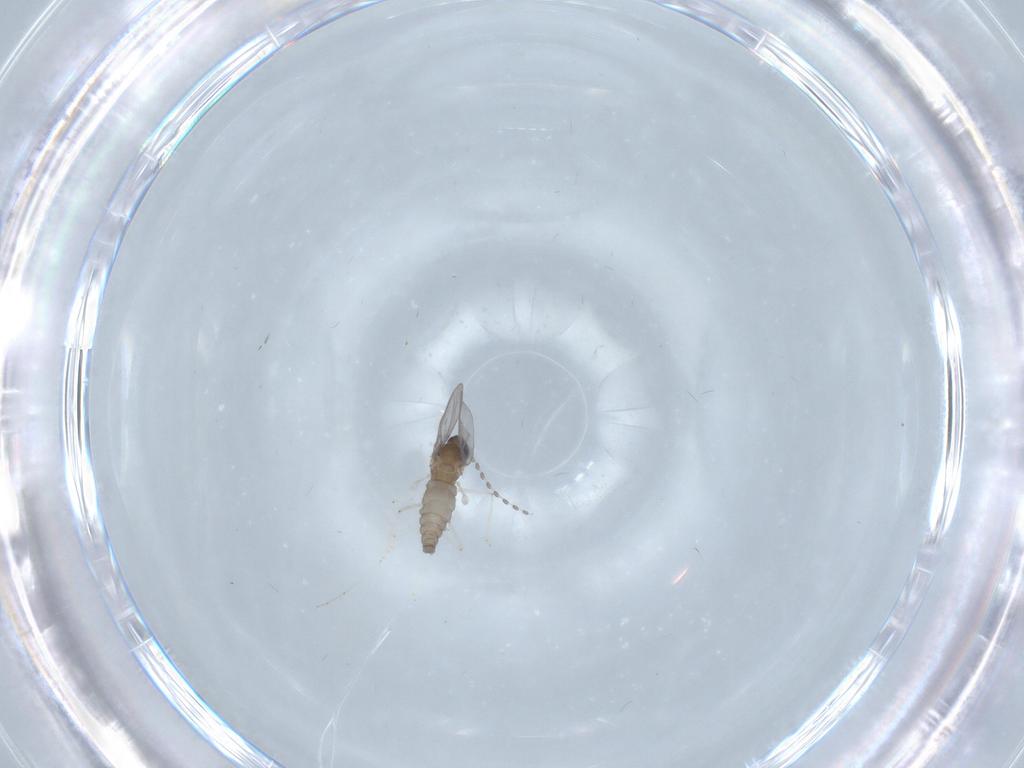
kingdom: Animalia
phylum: Arthropoda
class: Insecta
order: Diptera
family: Cecidomyiidae
